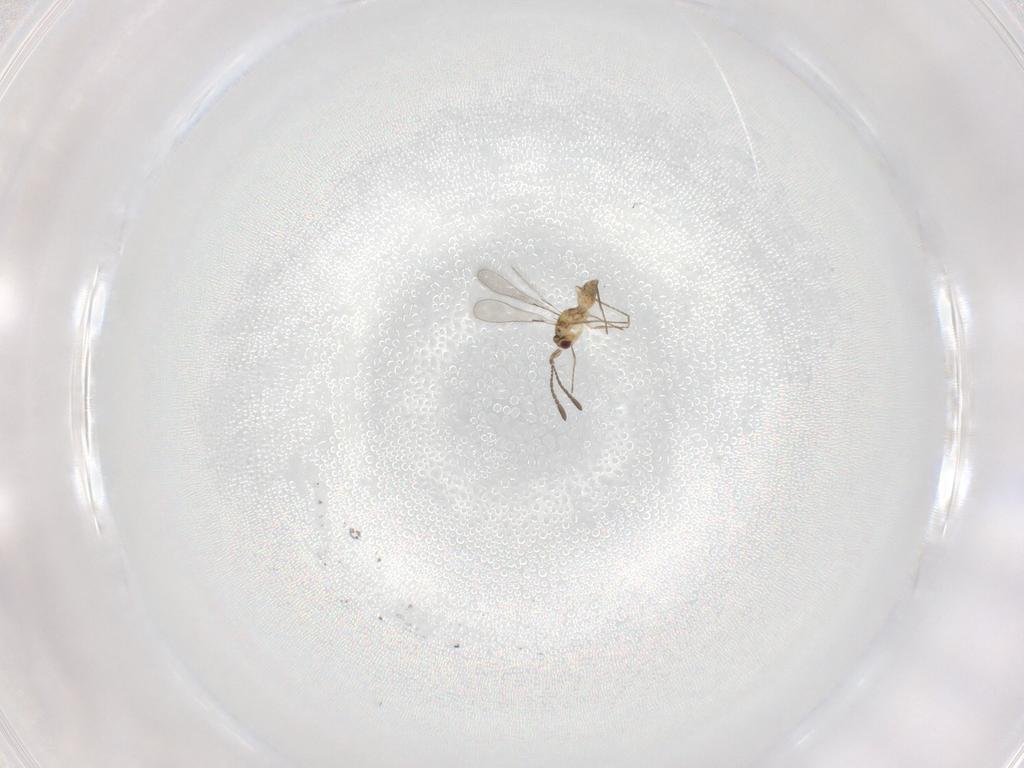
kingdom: Animalia
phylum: Arthropoda
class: Insecta
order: Hymenoptera
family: Mymaridae
